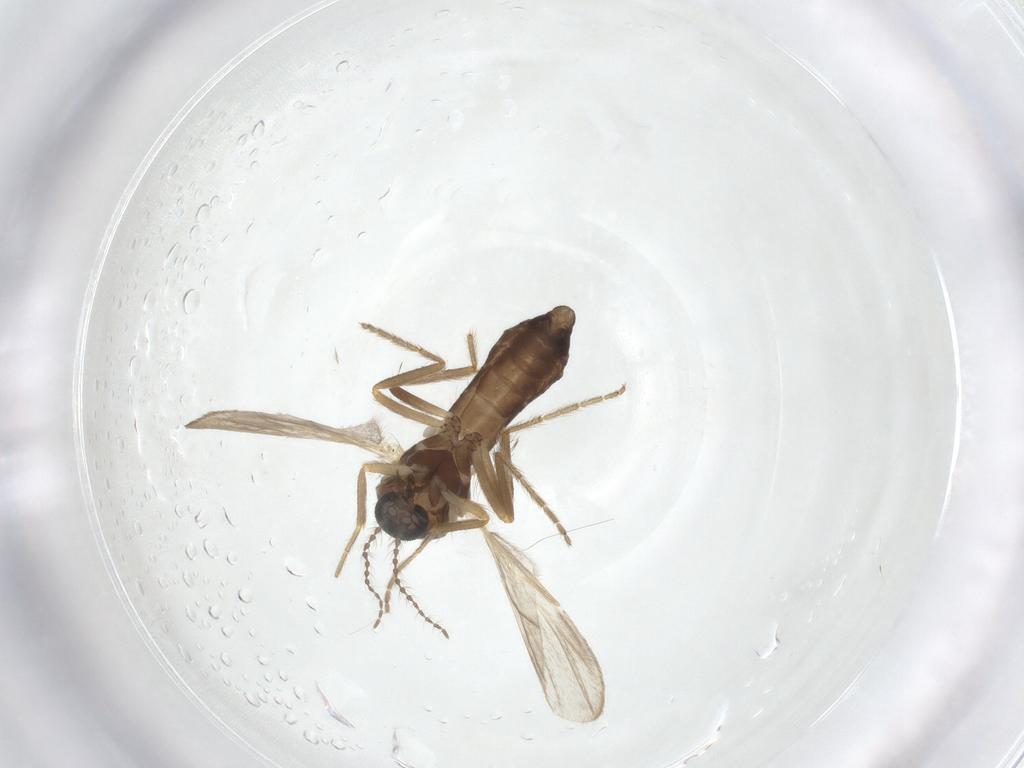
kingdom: Animalia
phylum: Arthropoda
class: Insecta
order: Diptera
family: Ceratopogonidae
